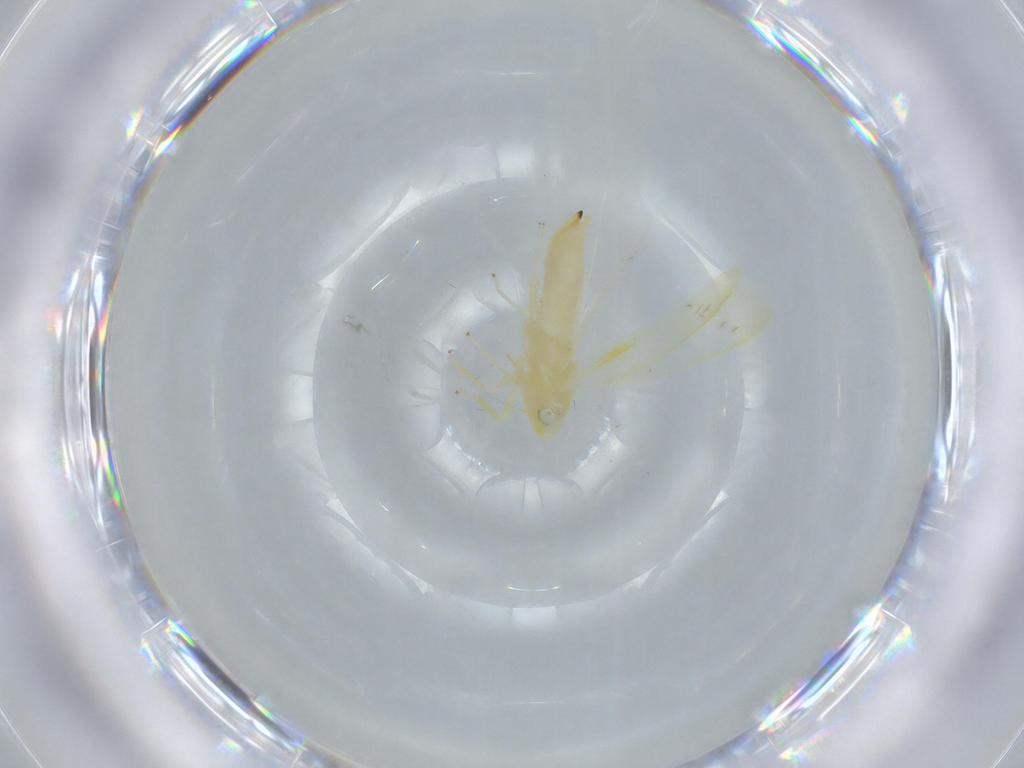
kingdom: Animalia
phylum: Arthropoda
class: Insecta
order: Hemiptera
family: Cicadellidae
